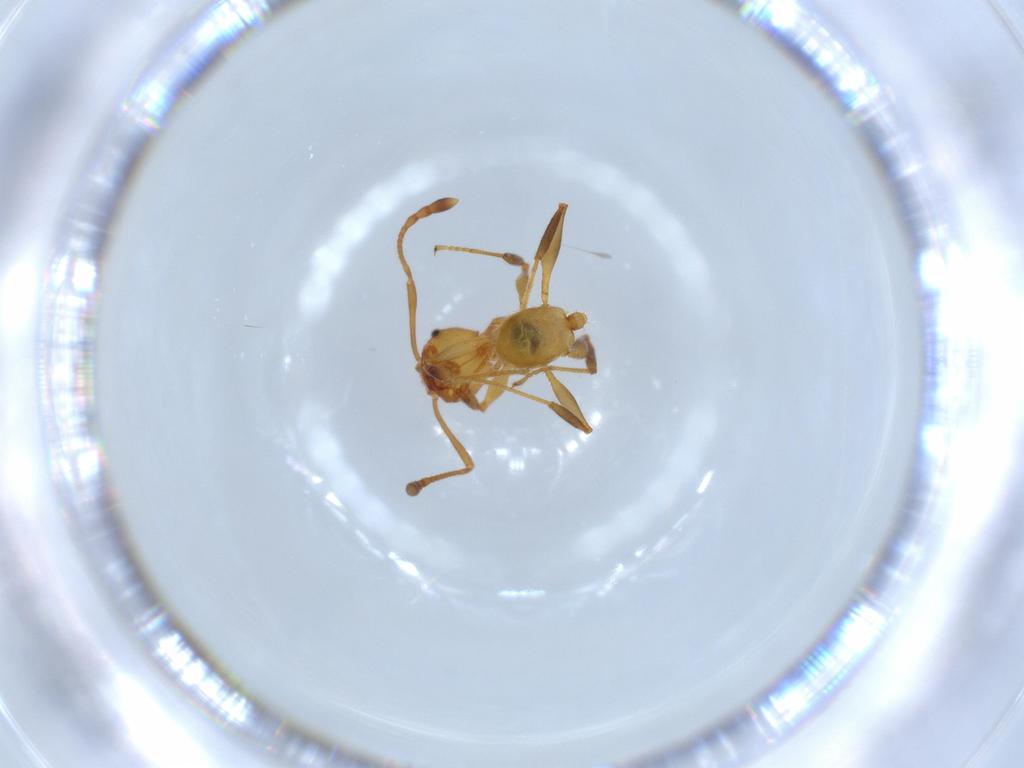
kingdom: Animalia
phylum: Arthropoda
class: Insecta
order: Hymenoptera
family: Formicidae
